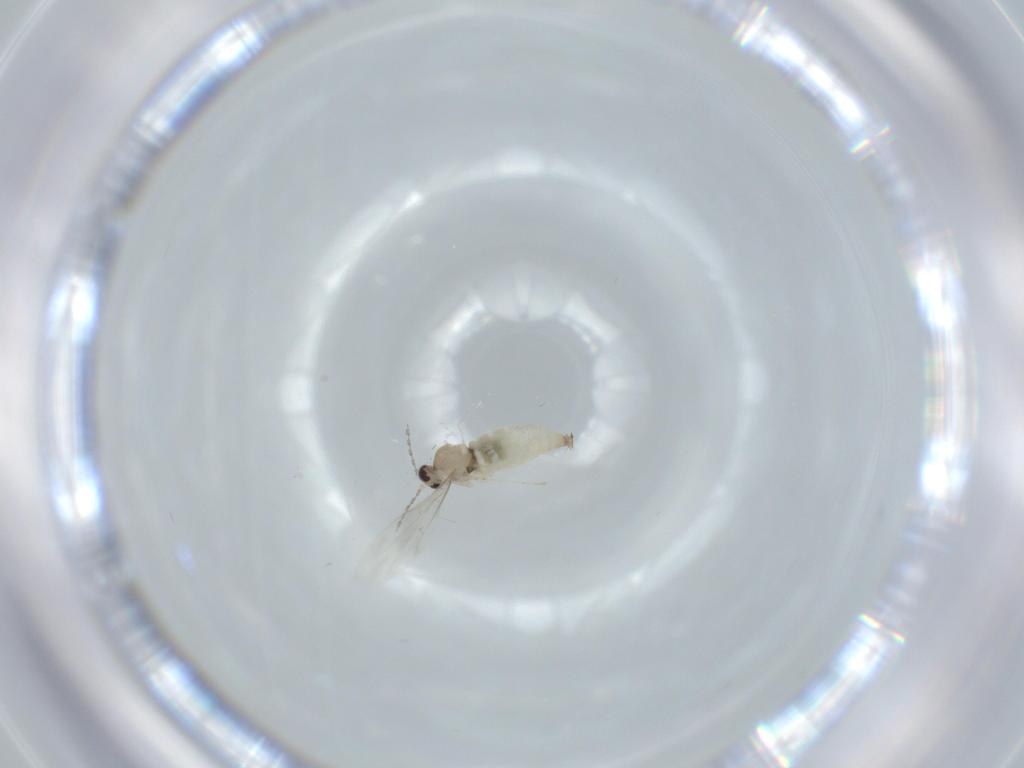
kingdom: Animalia
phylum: Arthropoda
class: Insecta
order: Diptera
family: Cecidomyiidae
